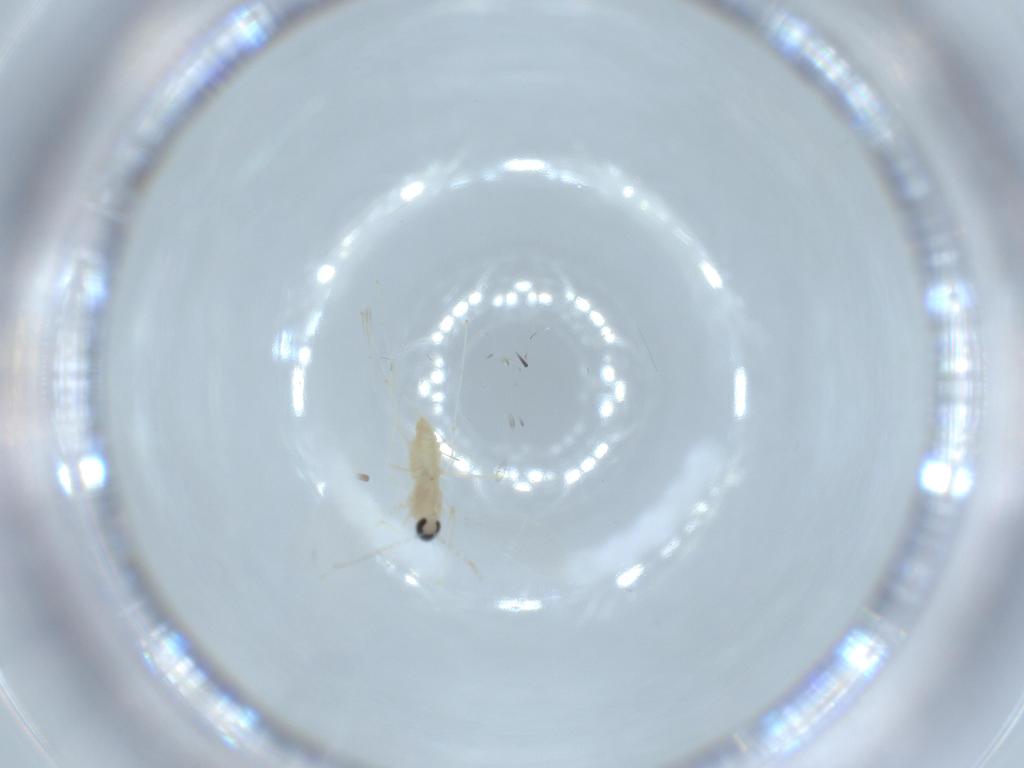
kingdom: Animalia
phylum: Arthropoda
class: Insecta
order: Diptera
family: Cecidomyiidae
